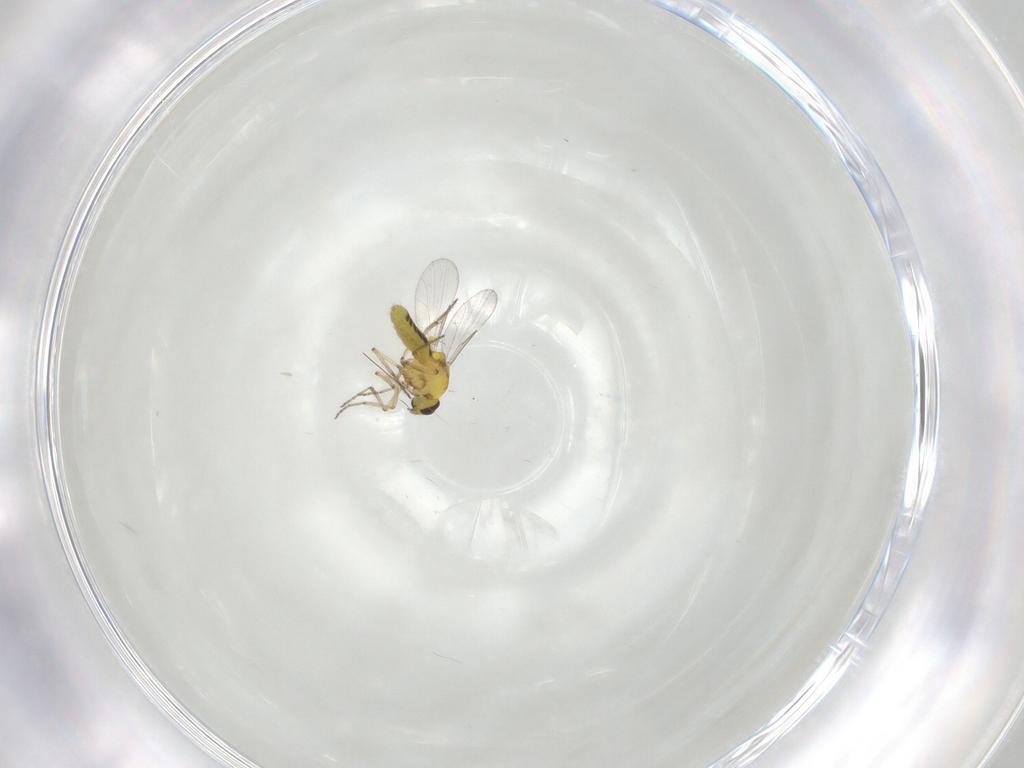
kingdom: Animalia
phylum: Arthropoda
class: Insecta
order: Diptera
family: Ceratopogonidae
